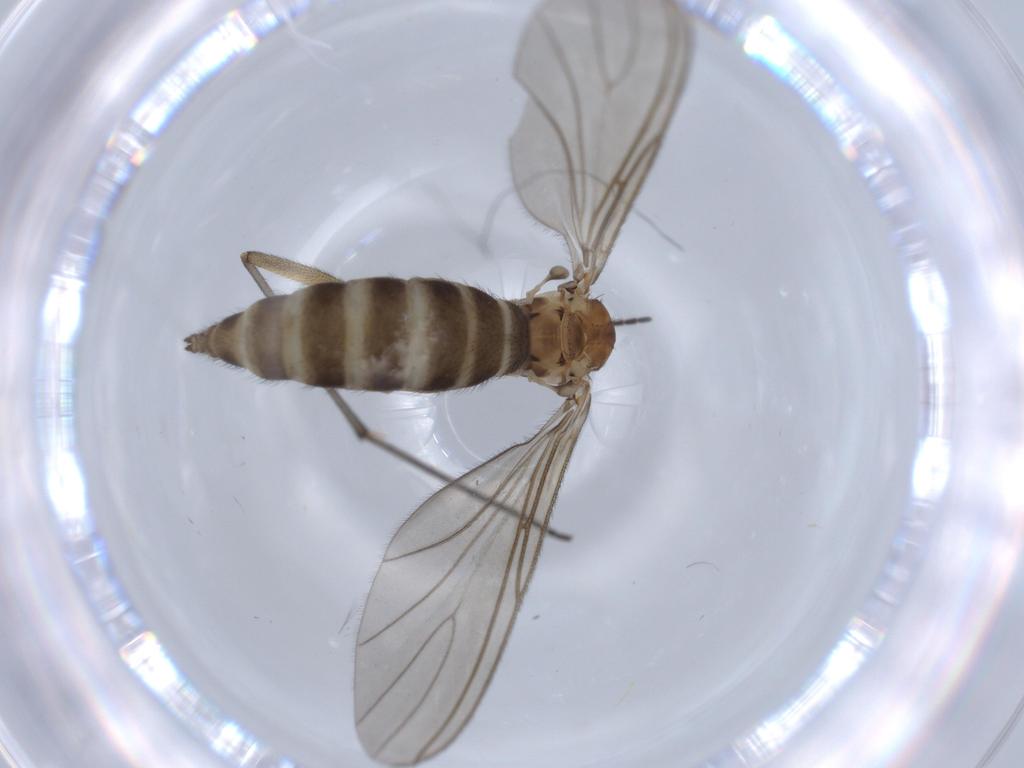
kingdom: Animalia
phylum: Arthropoda
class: Insecta
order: Diptera
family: Sciaridae
